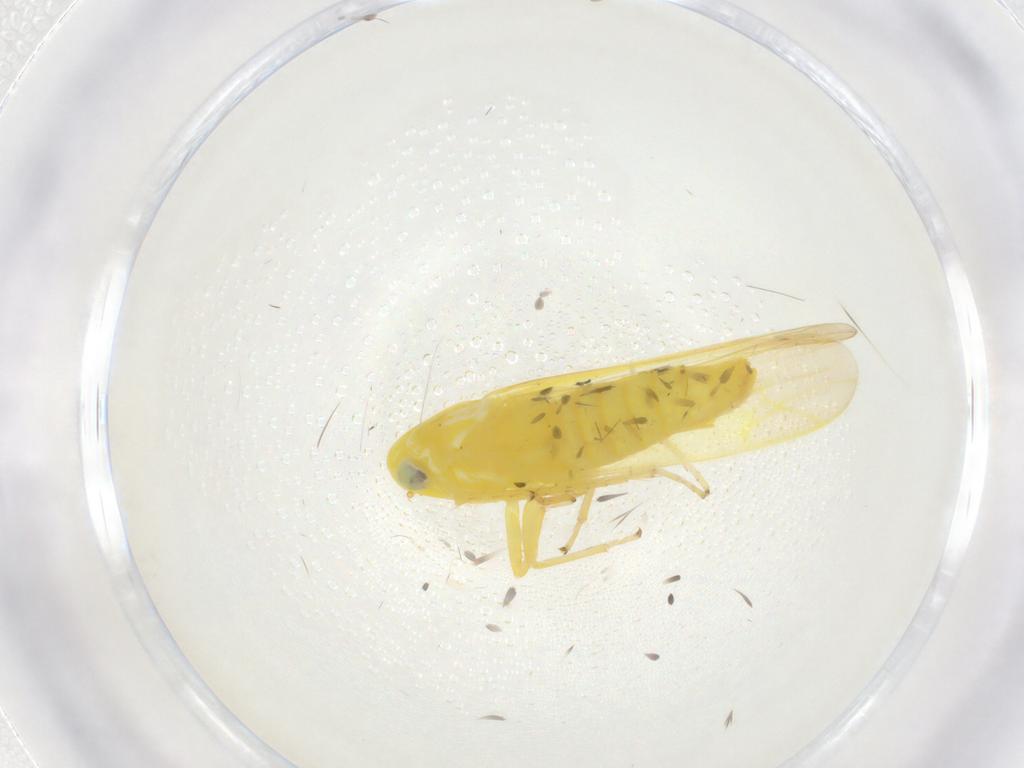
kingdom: Animalia
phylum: Arthropoda
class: Insecta
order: Hemiptera
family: Cicadellidae
